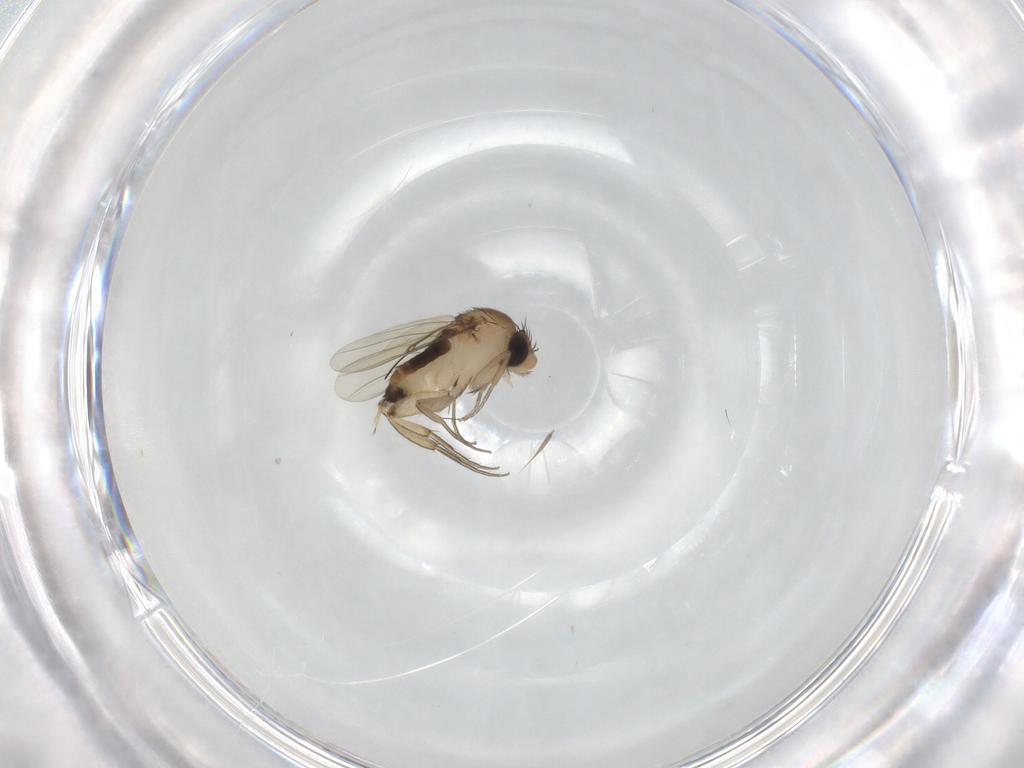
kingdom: Animalia
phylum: Arthropoda
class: Insecta
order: Diptera
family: Phoridae
